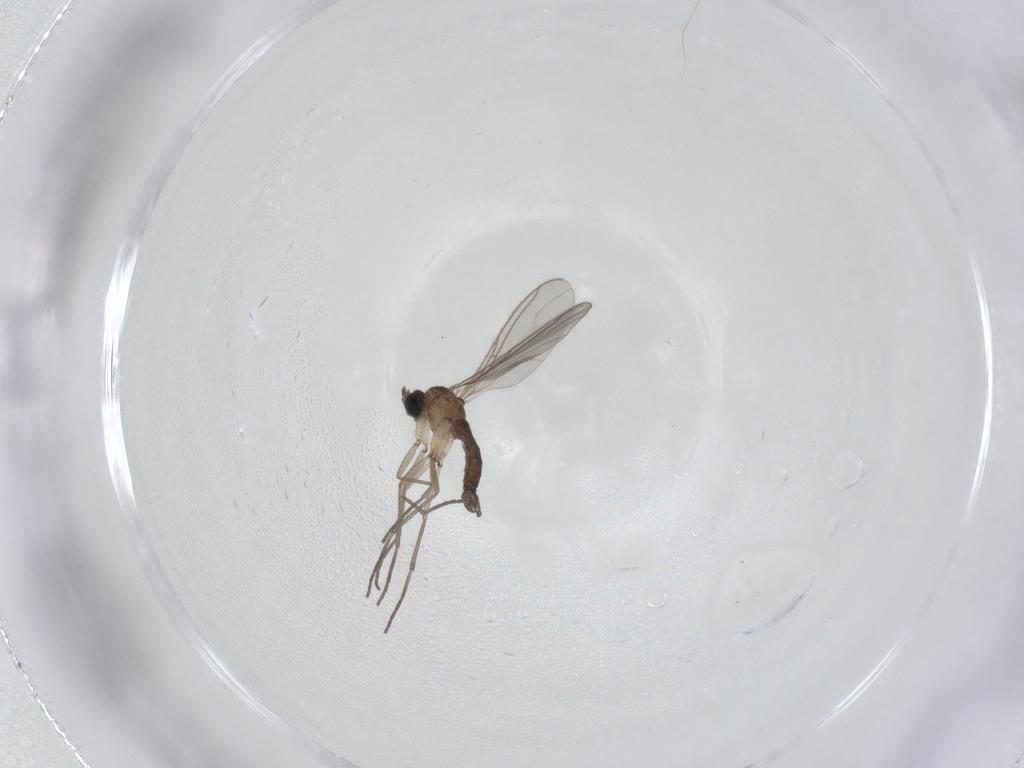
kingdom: Animalia
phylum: Arthropoda
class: Insecta
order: Diptera
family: Sciaridae
